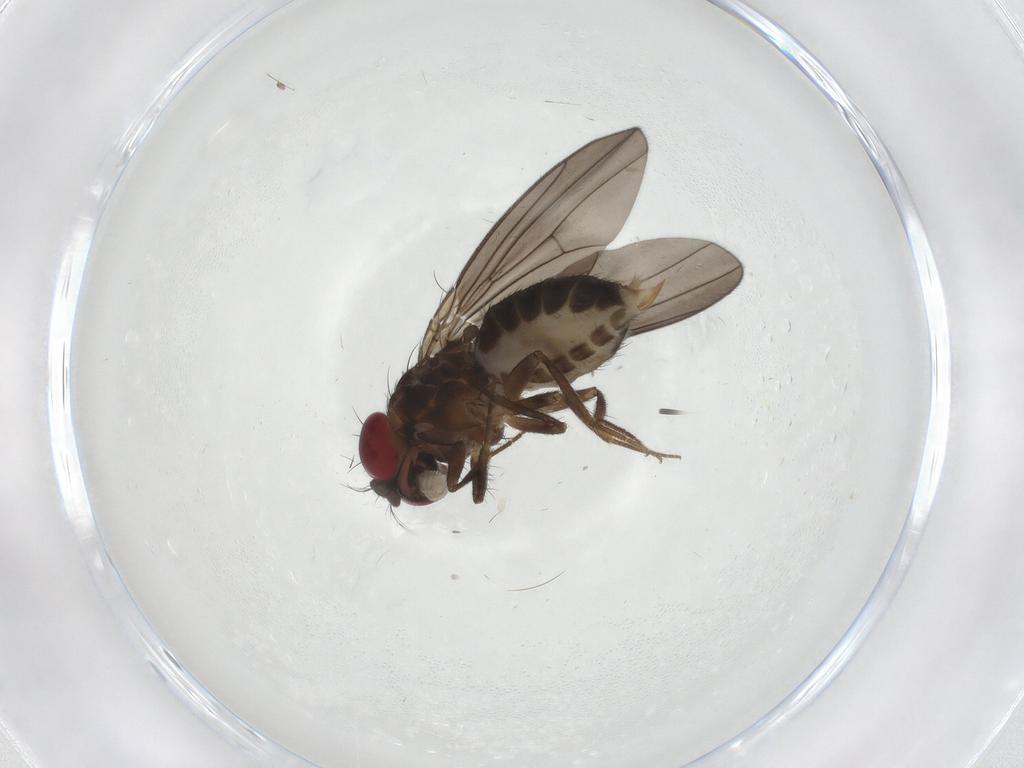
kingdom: Animalia
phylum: Arthropoda
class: Insecta
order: Diptera
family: Drosophilidae
